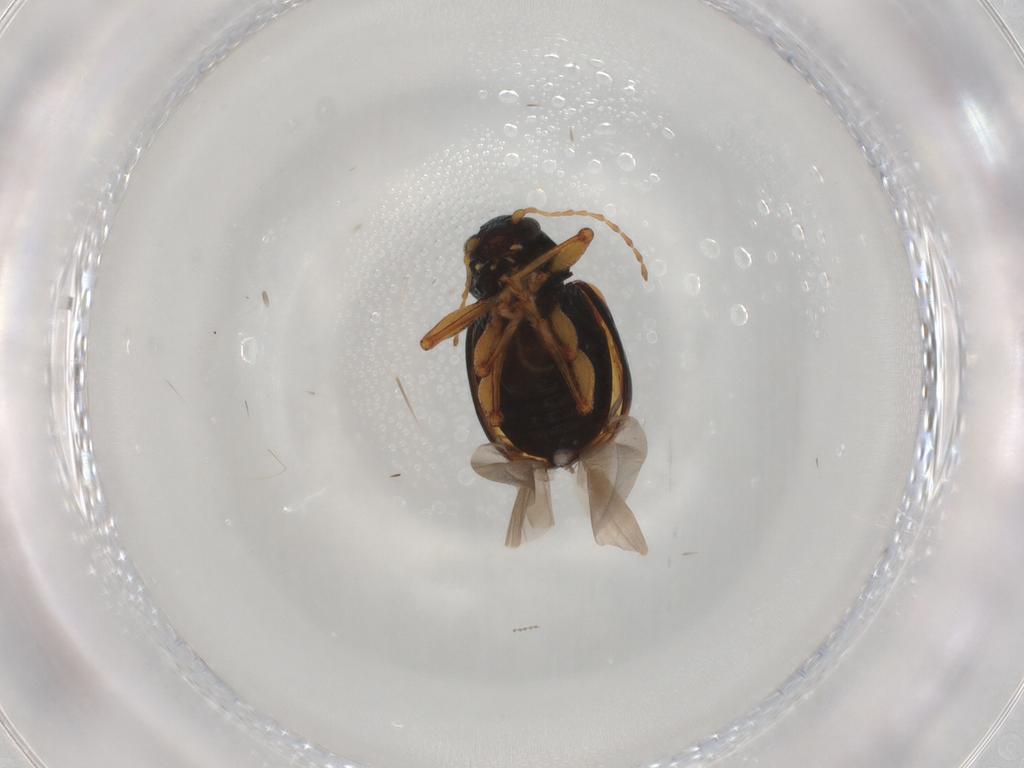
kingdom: Animalia
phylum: Arthropoda
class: Insecta
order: Coleoptera
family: Chrysomelidae
